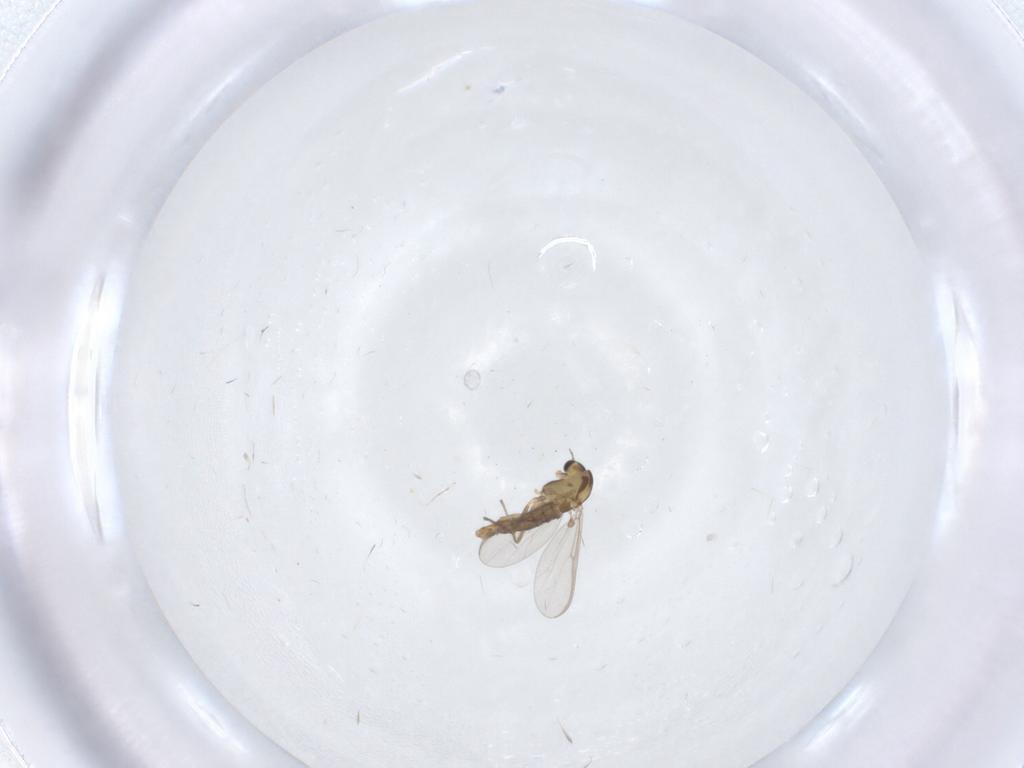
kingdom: Animalia
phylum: Arthropoda
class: Insecta
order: Diptera
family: Psychodidae
